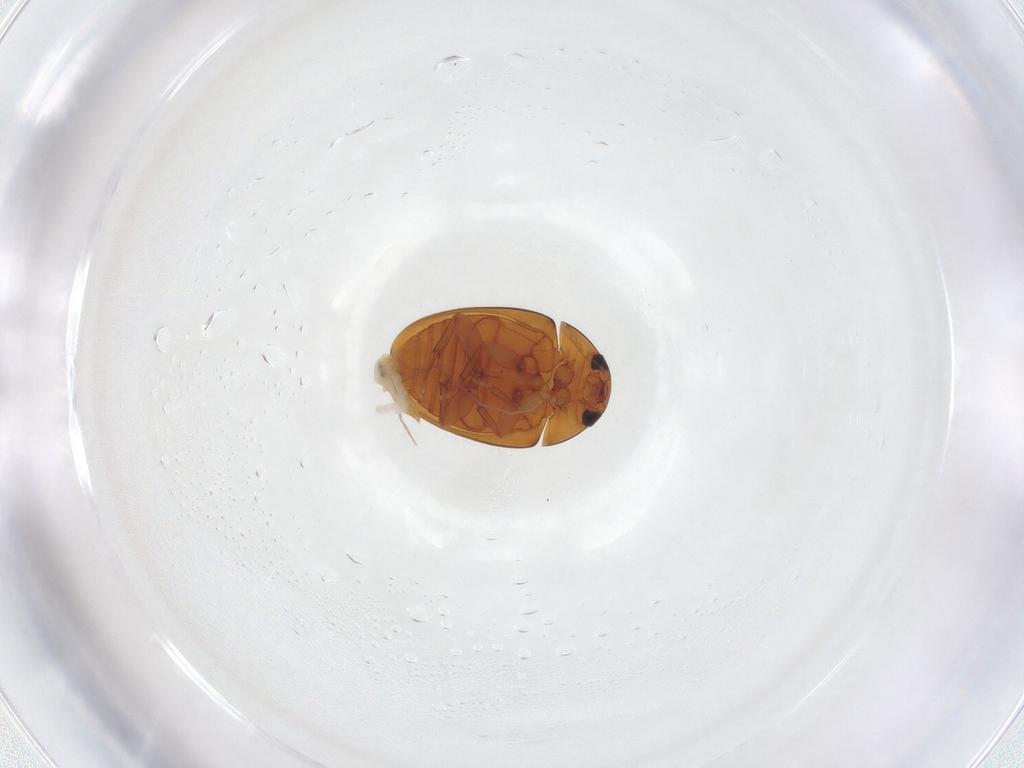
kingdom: Animalia
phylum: Arthropoda
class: Insecta
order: Coleoptera
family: Phalacridae
